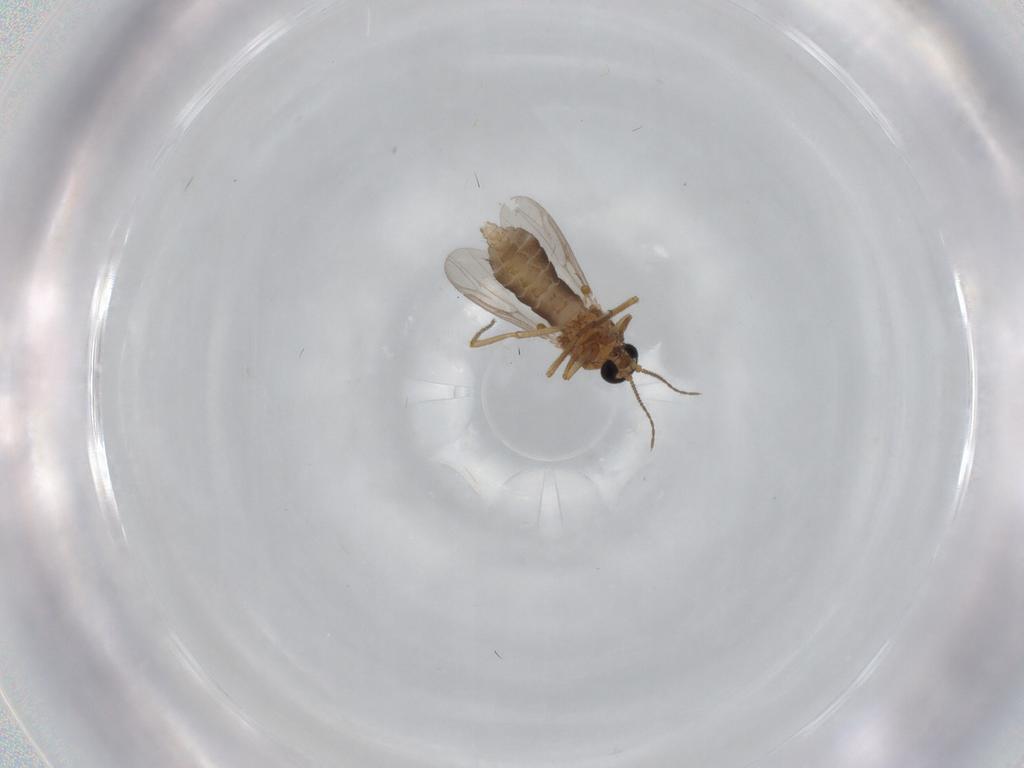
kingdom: Animalia
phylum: Arthropoda
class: Insecta
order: Diptera
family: Ceratopogonidae
